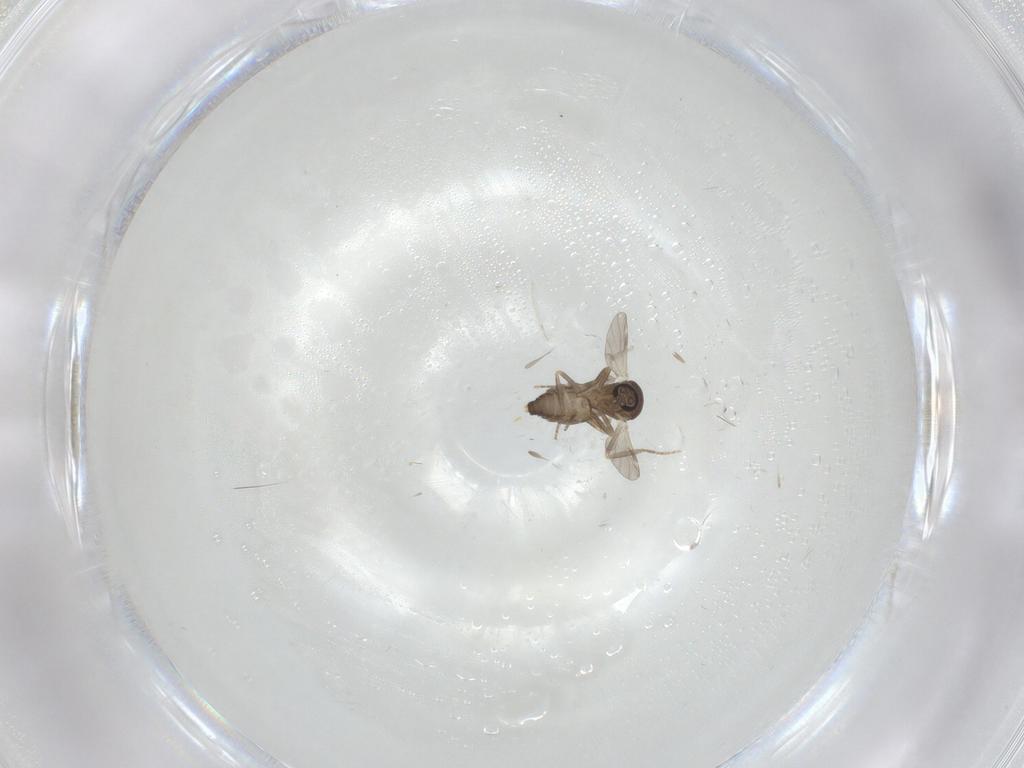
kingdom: Animalia
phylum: Arthropoda
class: Insecta
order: Diptera
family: Ceratopogonidae
